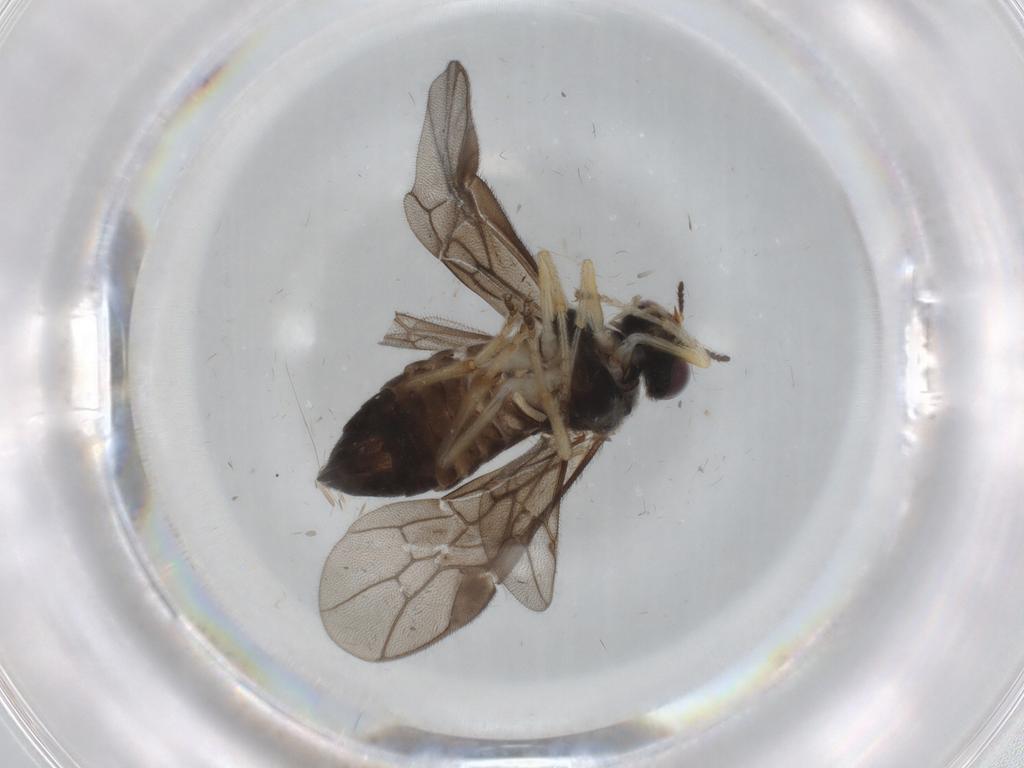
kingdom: Animalia
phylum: Arthropoda
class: Insecta
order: Hymenoptera
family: Pergidae
